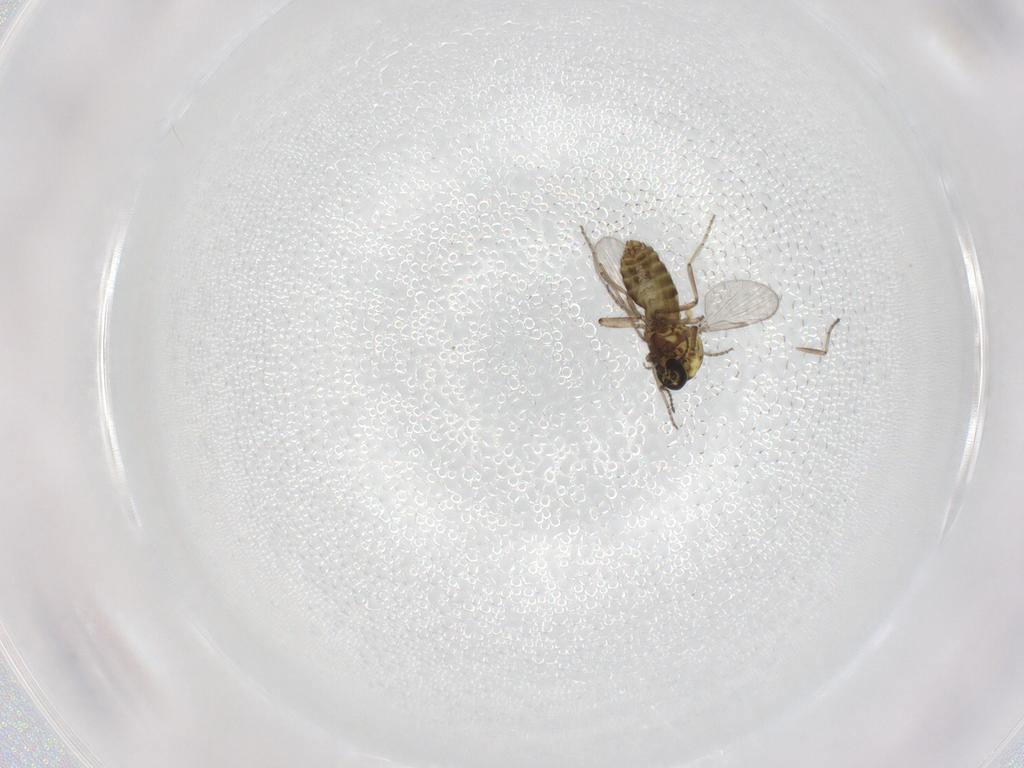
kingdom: Animalia
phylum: Arthropoda
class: Insecta
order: Diptera
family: Ceratopogonidae
